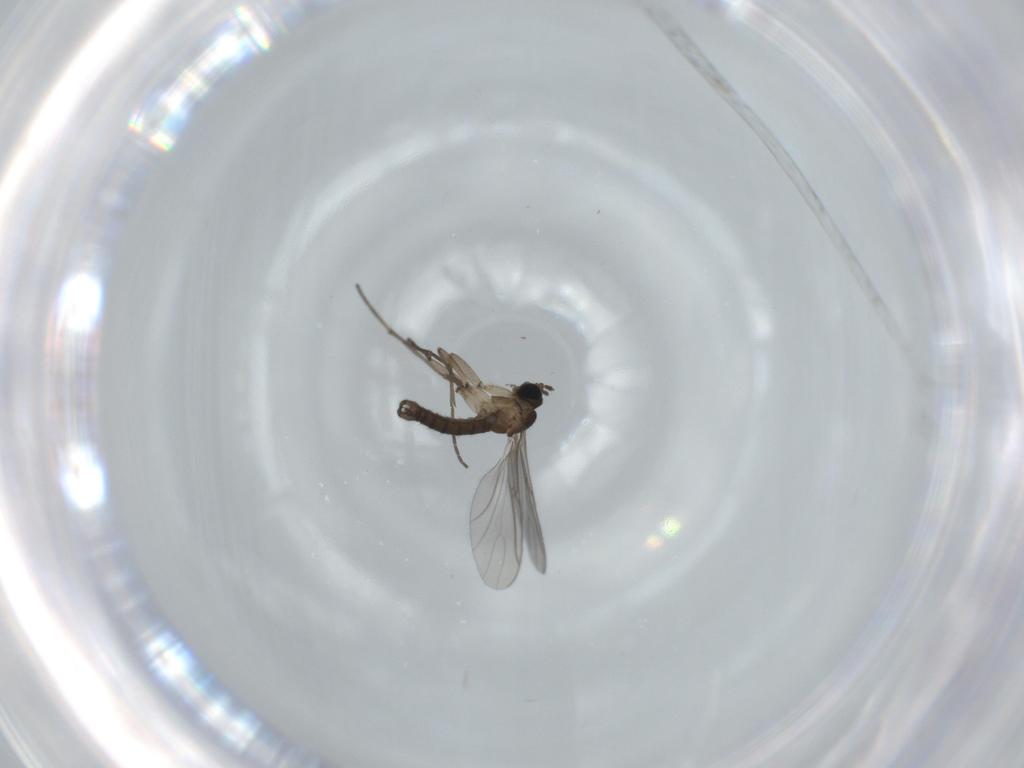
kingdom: Animalia
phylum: Arthropoda
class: Insecta
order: Diptera
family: Sciaridae
